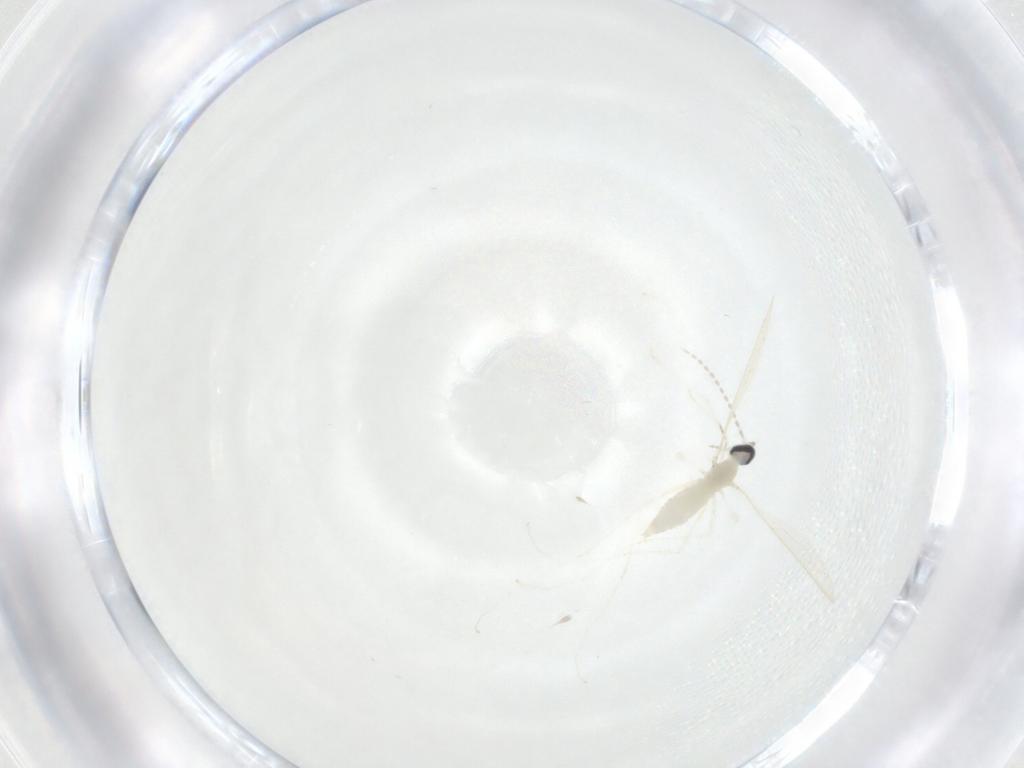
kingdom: Animalia
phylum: Arthropoda
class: Insecta
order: Diptera
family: Cecidomyiidae
